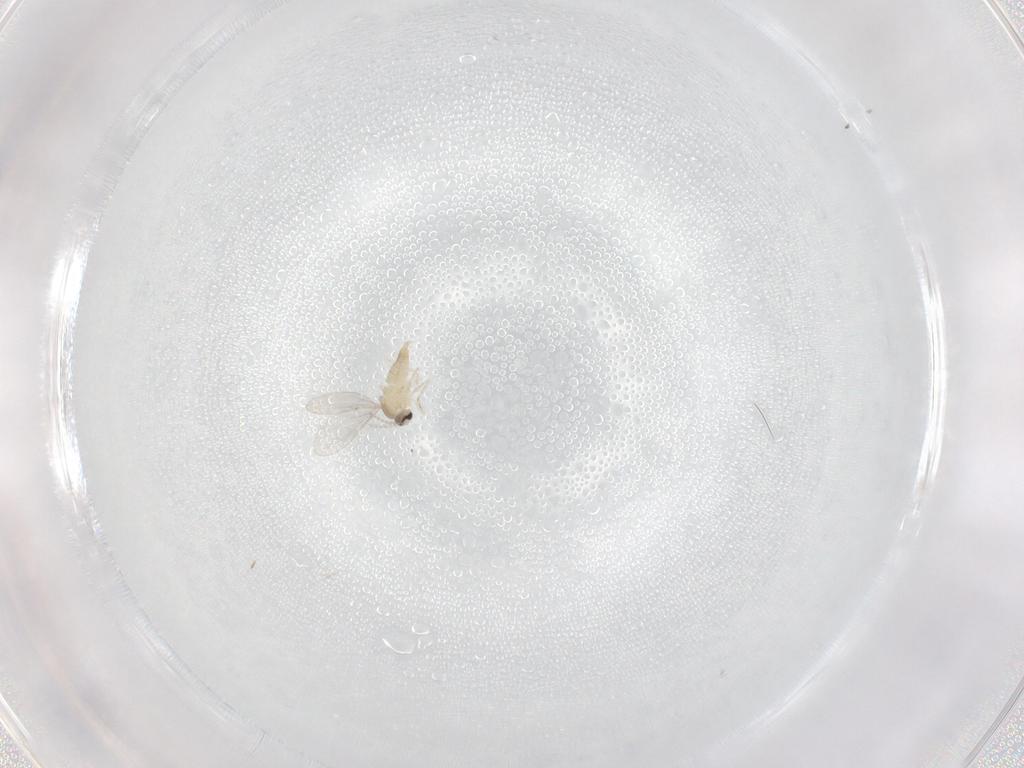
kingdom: Animalia
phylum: Arthropoda
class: Insecta
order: Diptera
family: Cecidomyiidae
